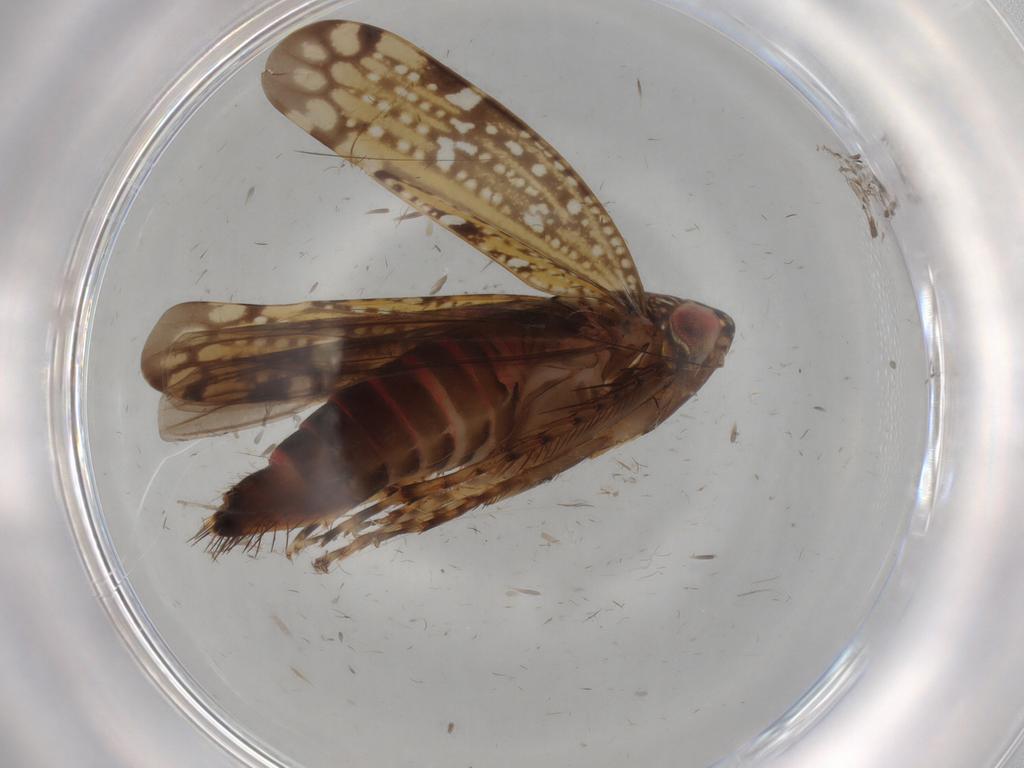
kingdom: Animalia
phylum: Arthropoda
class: Insecta
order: Hemiptera
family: Cicadellidae
